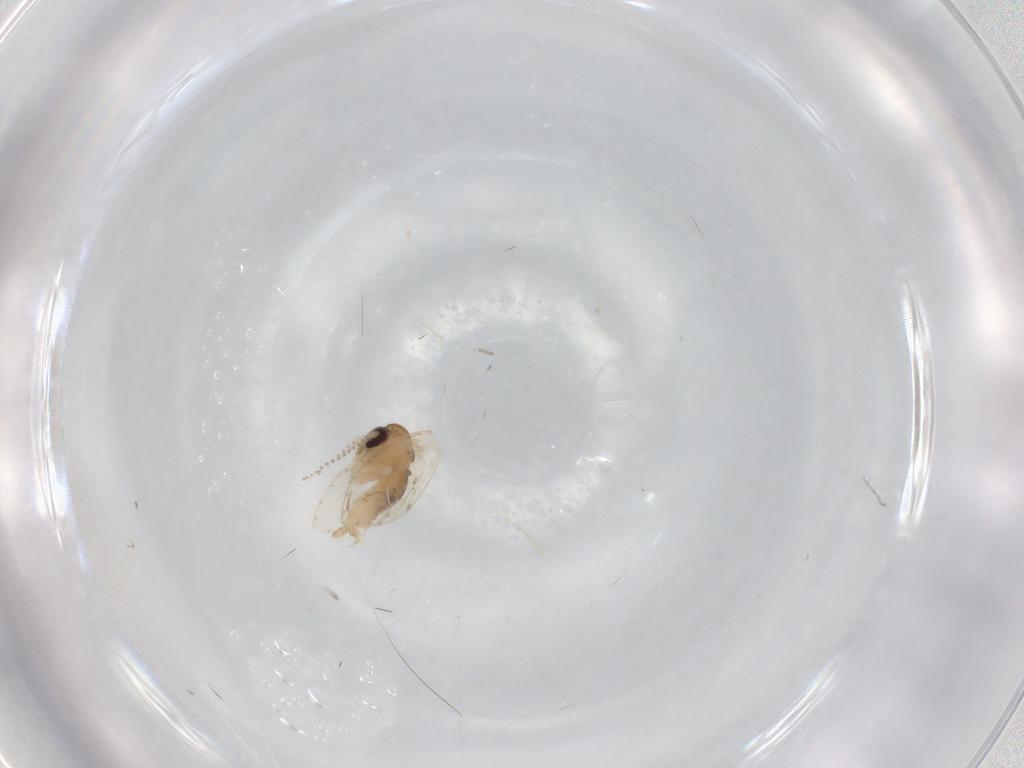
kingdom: Animalia
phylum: Arthropoda
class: Insecta
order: Diptera
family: Psychodidae
